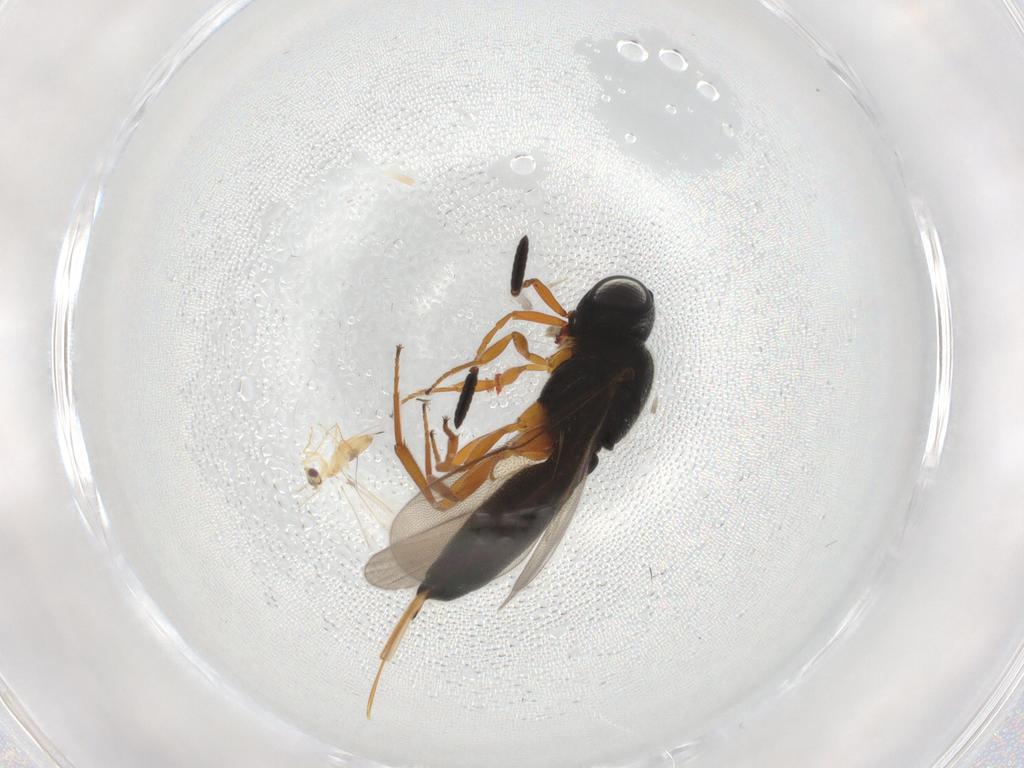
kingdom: Animalia
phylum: Arthropoda
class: Insecta
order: Hymenoptera
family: Scelionidae
